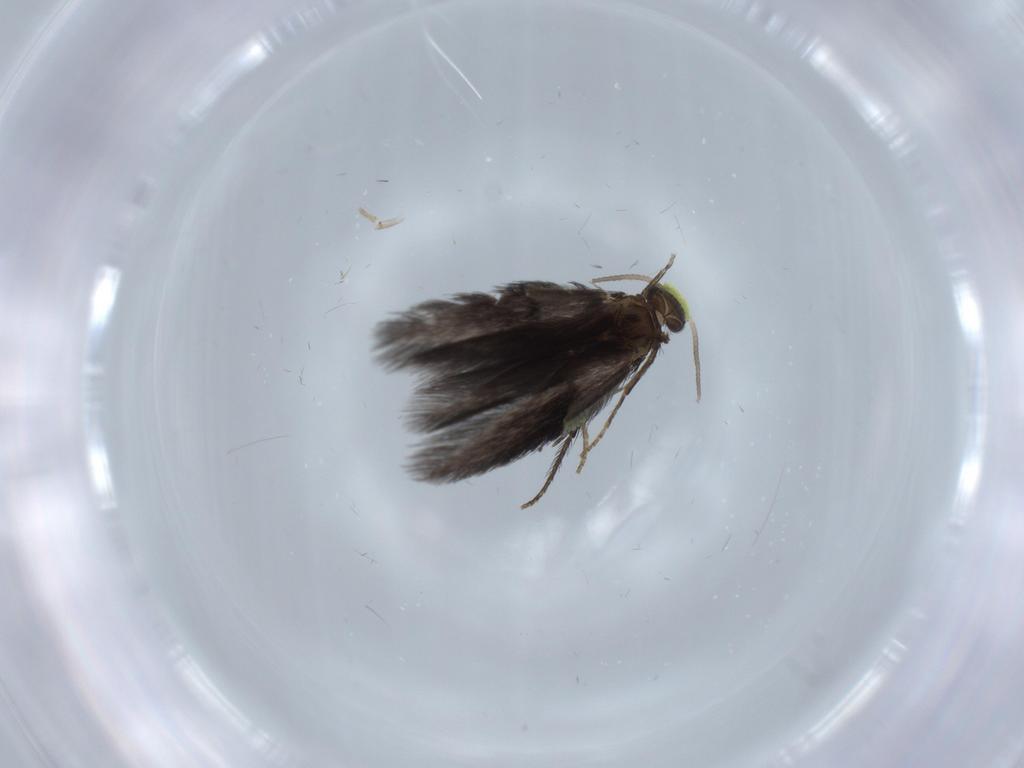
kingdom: Animalia
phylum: Arthropoda
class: Insecta
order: Trichoptera
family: Hydroptilidae
